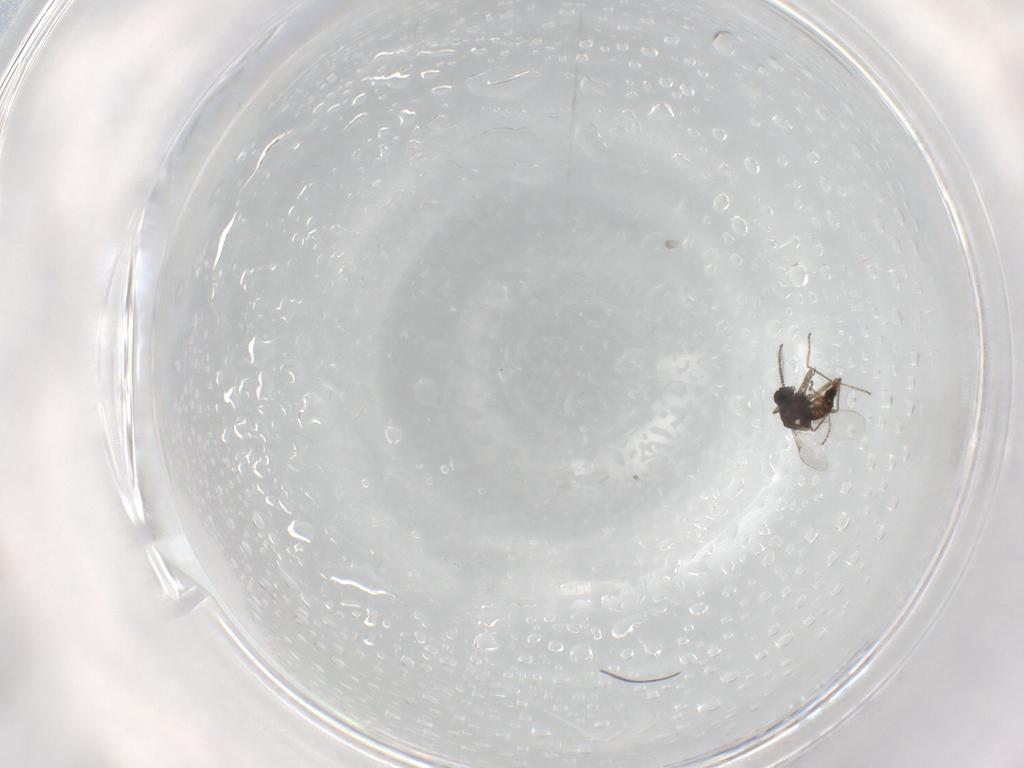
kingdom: Animalia
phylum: Arthropoda
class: Insecta
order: Diptera
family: Ceratopogonidae
